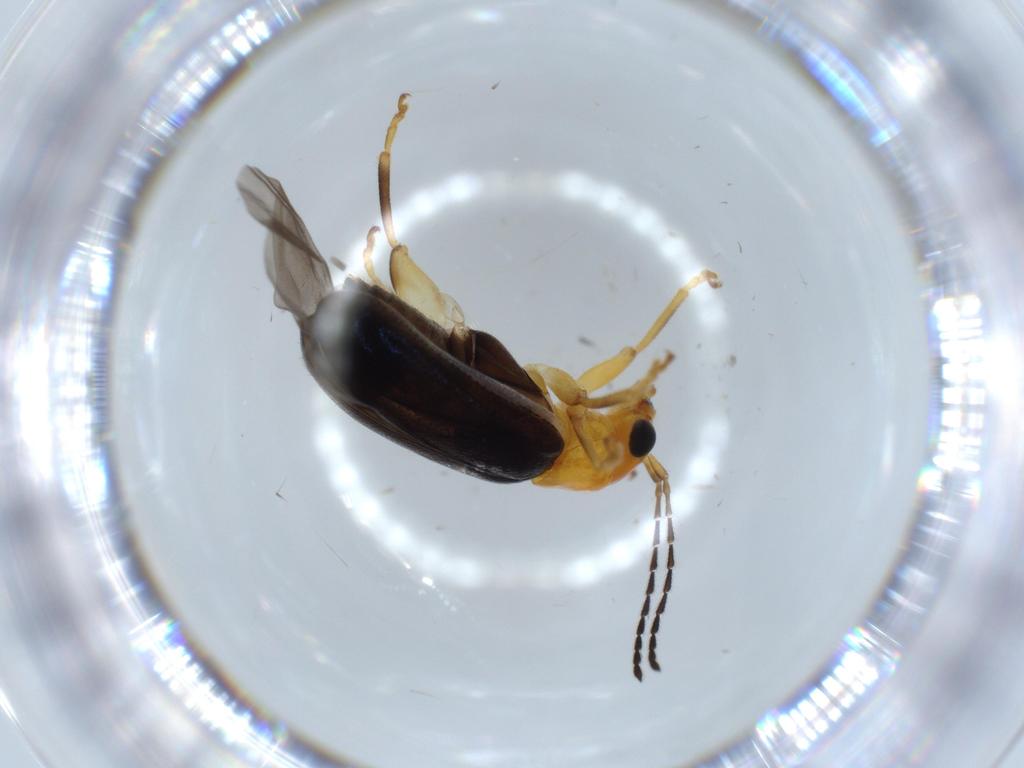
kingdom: Animalia
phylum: Arthropoda
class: Insecta
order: Coleoptera
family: Chrysomelidae
